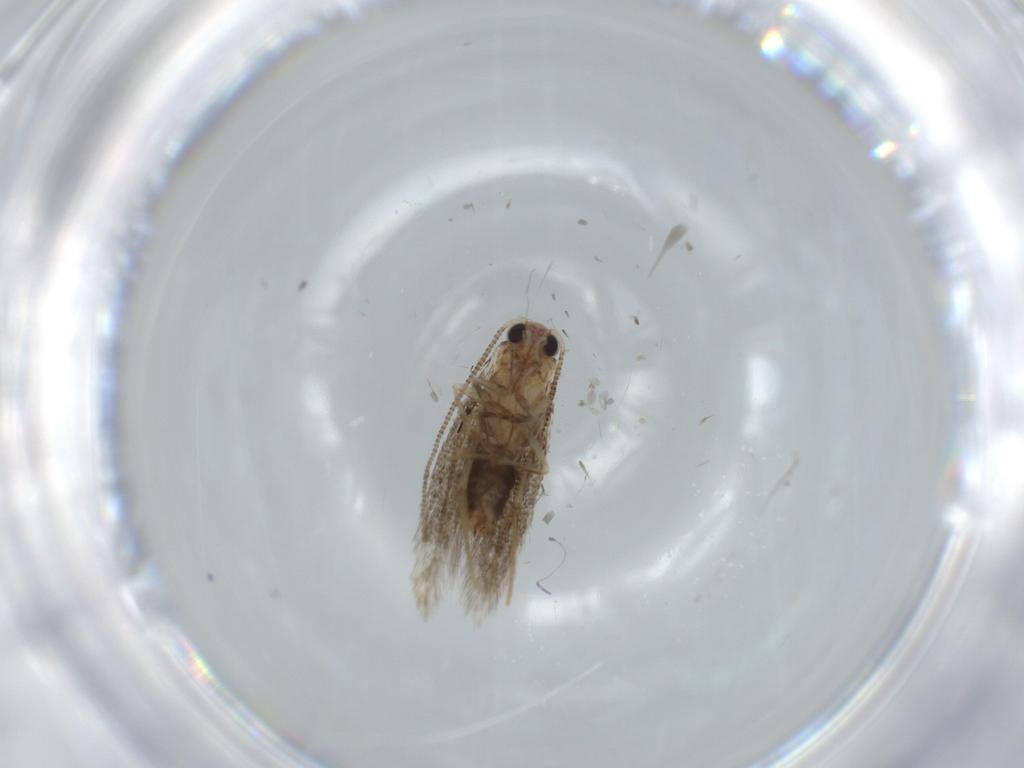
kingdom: Animalia
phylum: Arthropoda
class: Insecta
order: Lepidoptera
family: Tineidae
